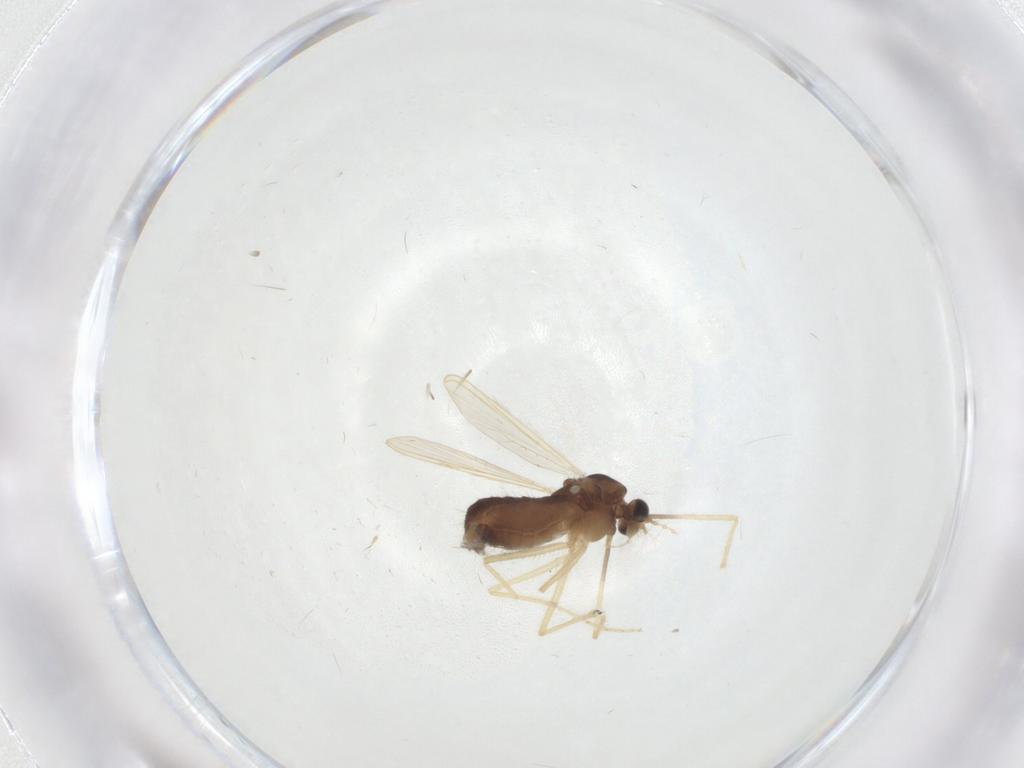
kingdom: Animalia
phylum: Arthropoda
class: Insecta
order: Diptera
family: Chironomidae
